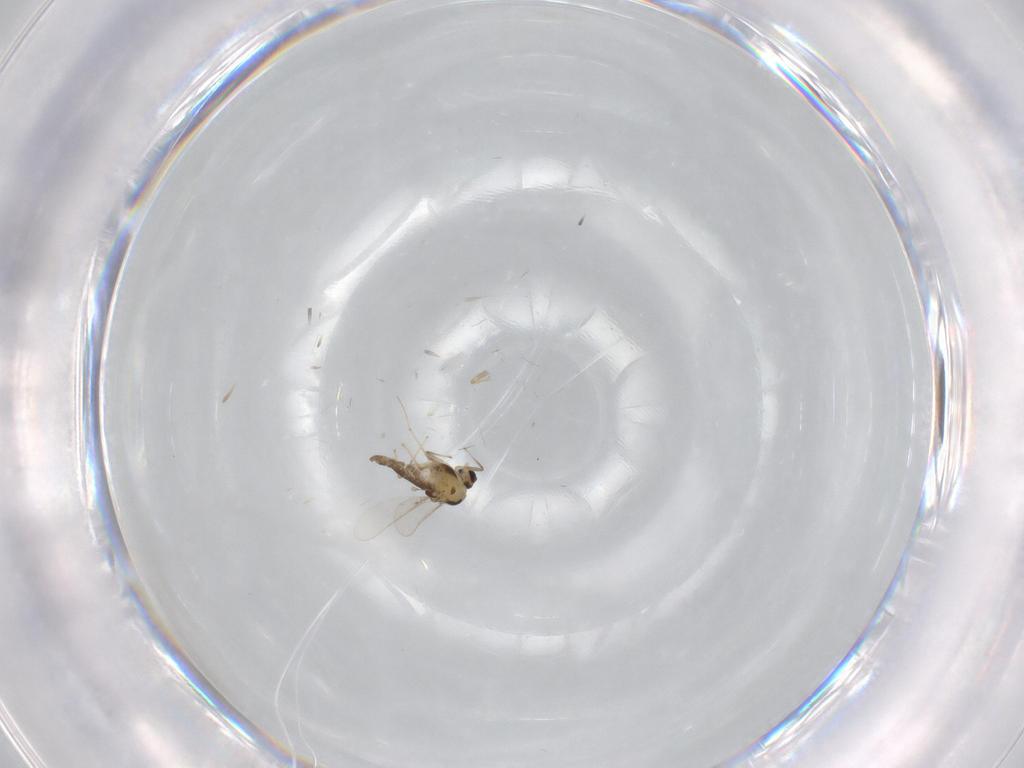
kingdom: Animalia
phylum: Arthropoda
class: Insecta
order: Diptera
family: Chironomidae
